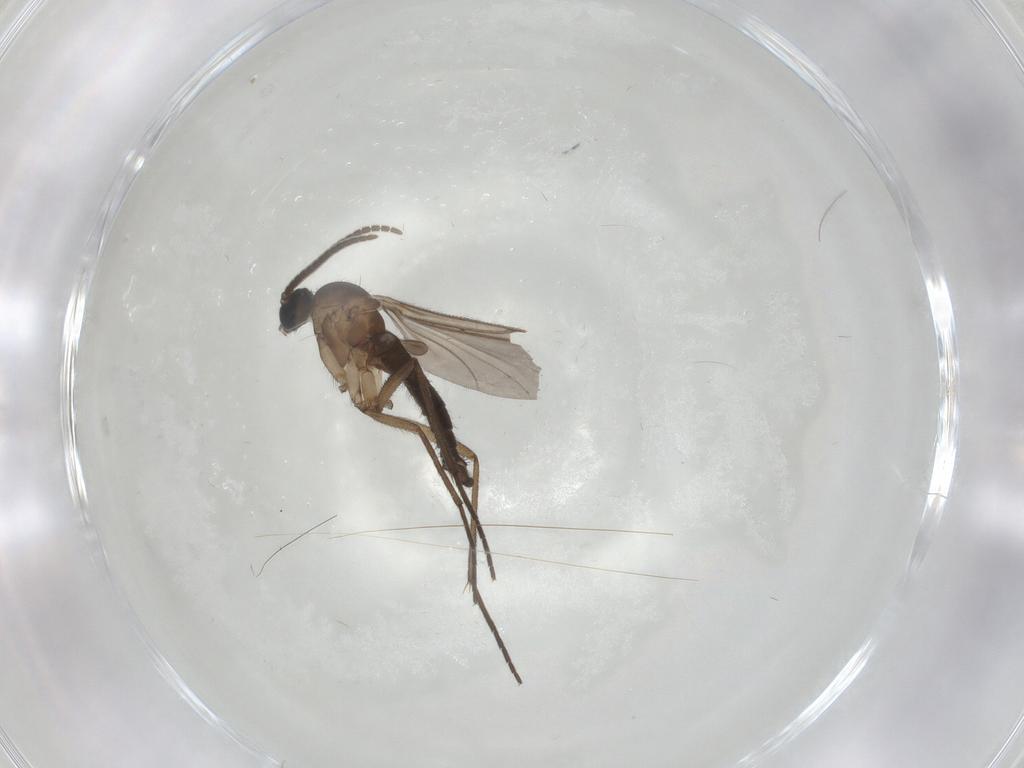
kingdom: Animalia
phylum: Arthropoda
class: Insecta
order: Diptera
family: Sciaridae
